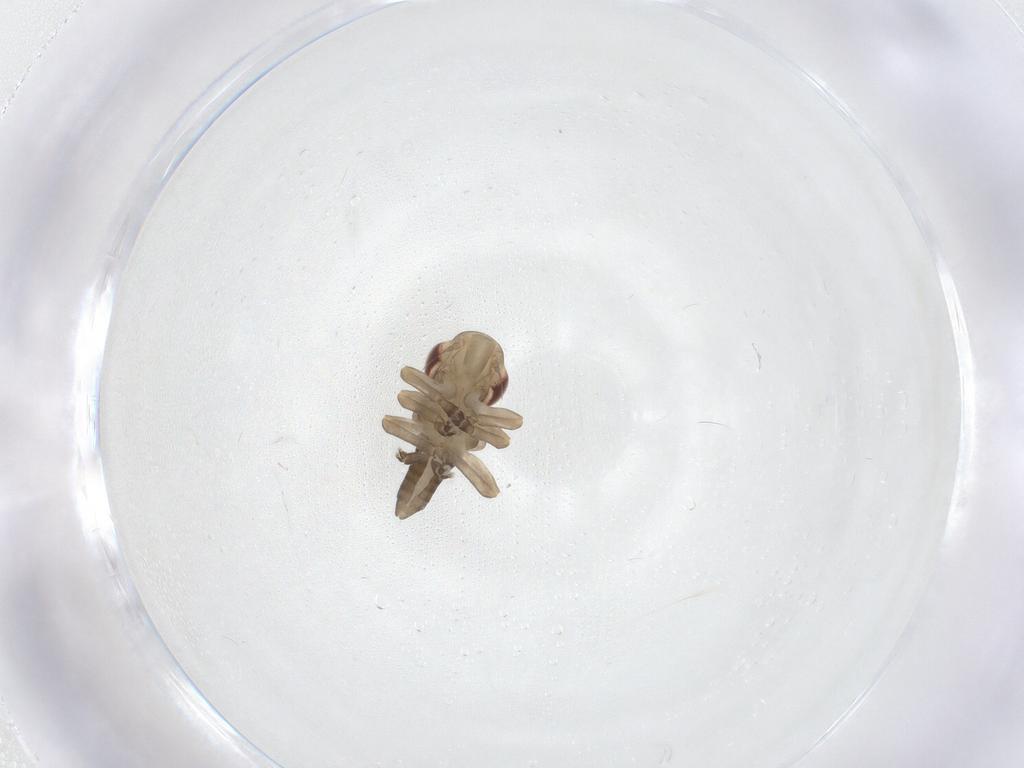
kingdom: Animalia
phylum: Arthropoda
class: Insecta
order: Hemiptera
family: Cicadellidae
